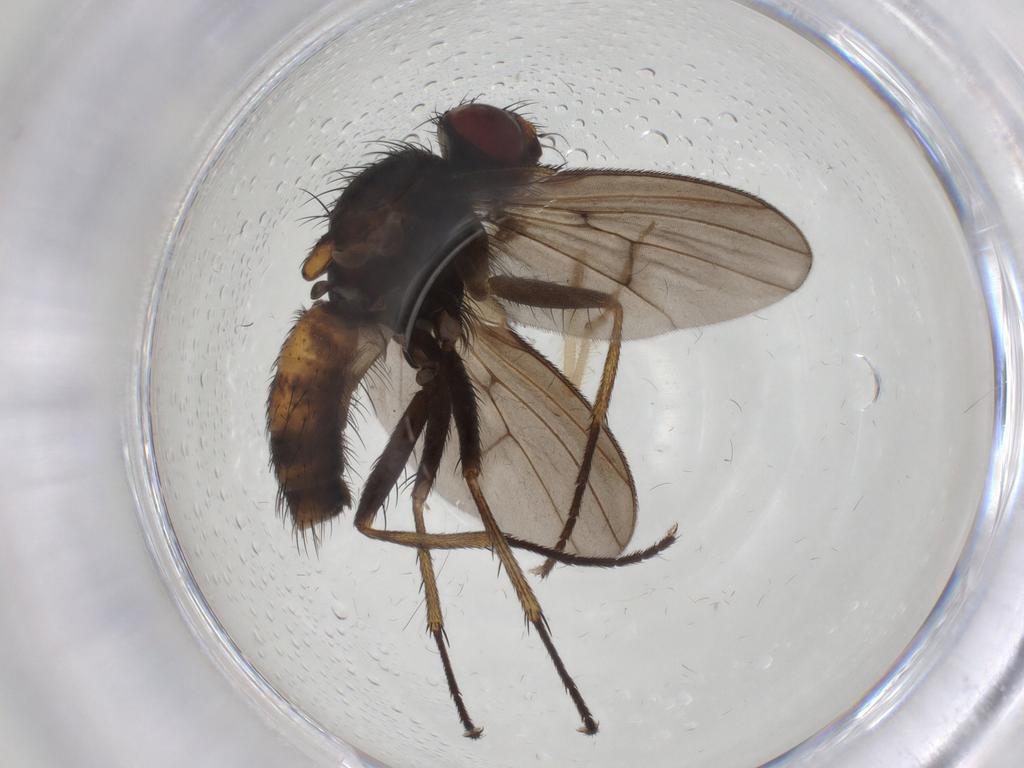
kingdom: Animalia
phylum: Arthropoda
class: Insecta
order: Diptera
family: Muscidae
